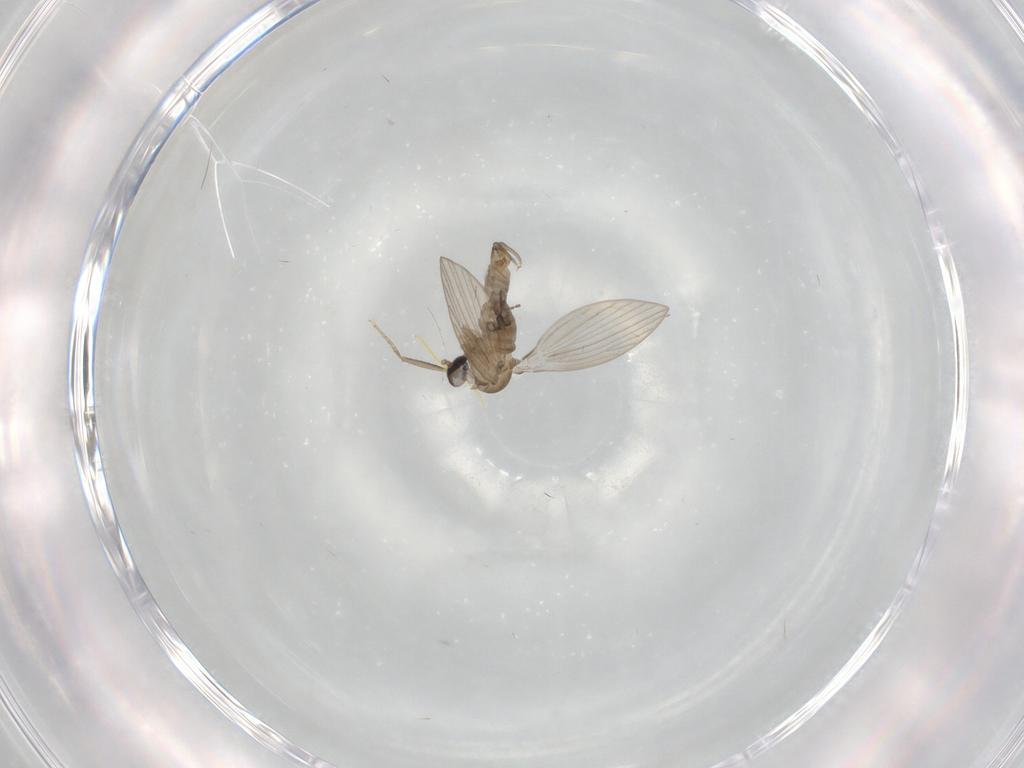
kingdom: Animalia
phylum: Arthropoda
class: Insecta
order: Diptera
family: Psychodidae
